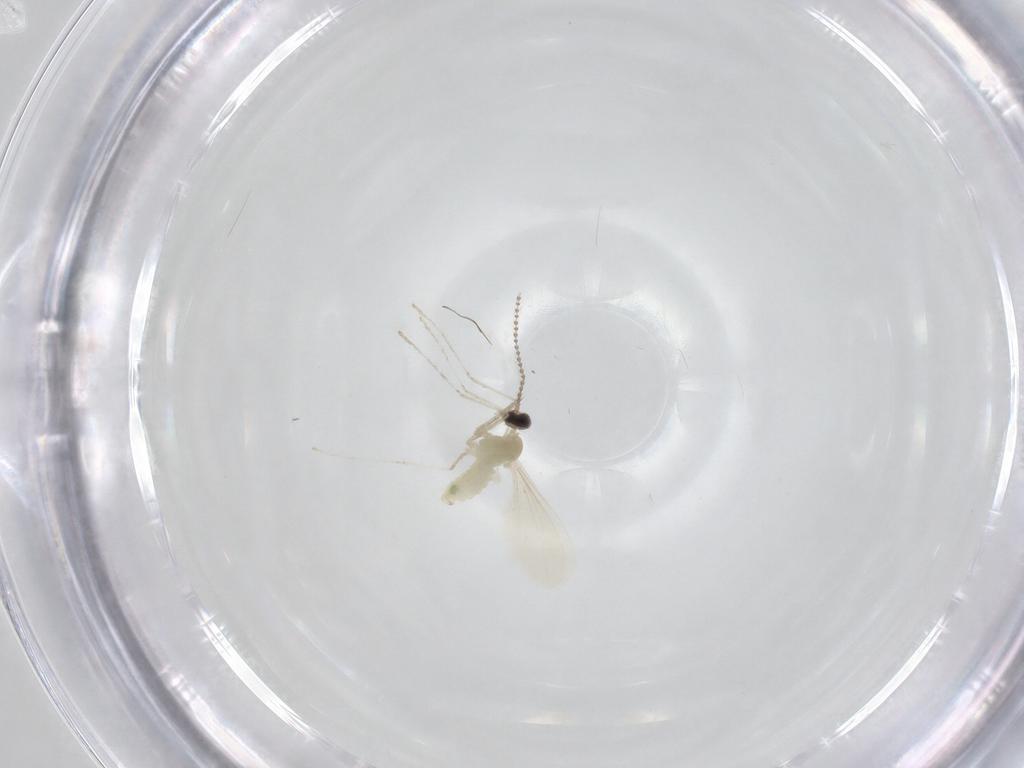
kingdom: Animalia
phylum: Arthropoda
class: Insecta
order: Diptera
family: Cecidomyiidae
